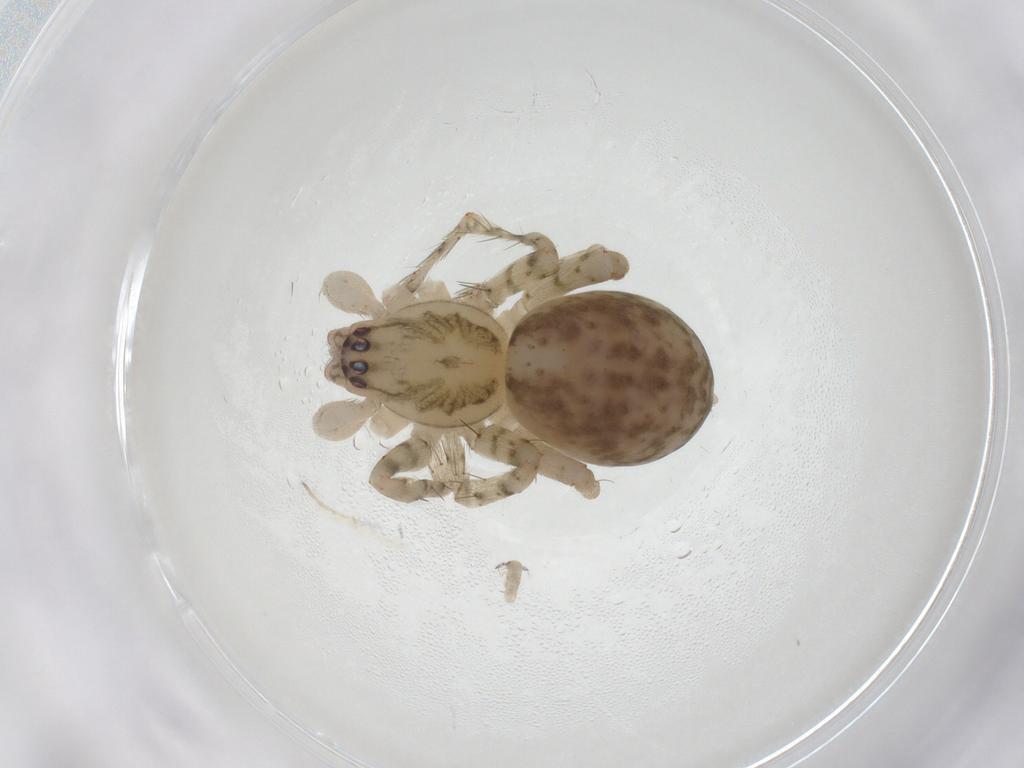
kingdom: Animalia
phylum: Arthropoda
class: Arachnida
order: Araneae
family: Anyphaenidae
